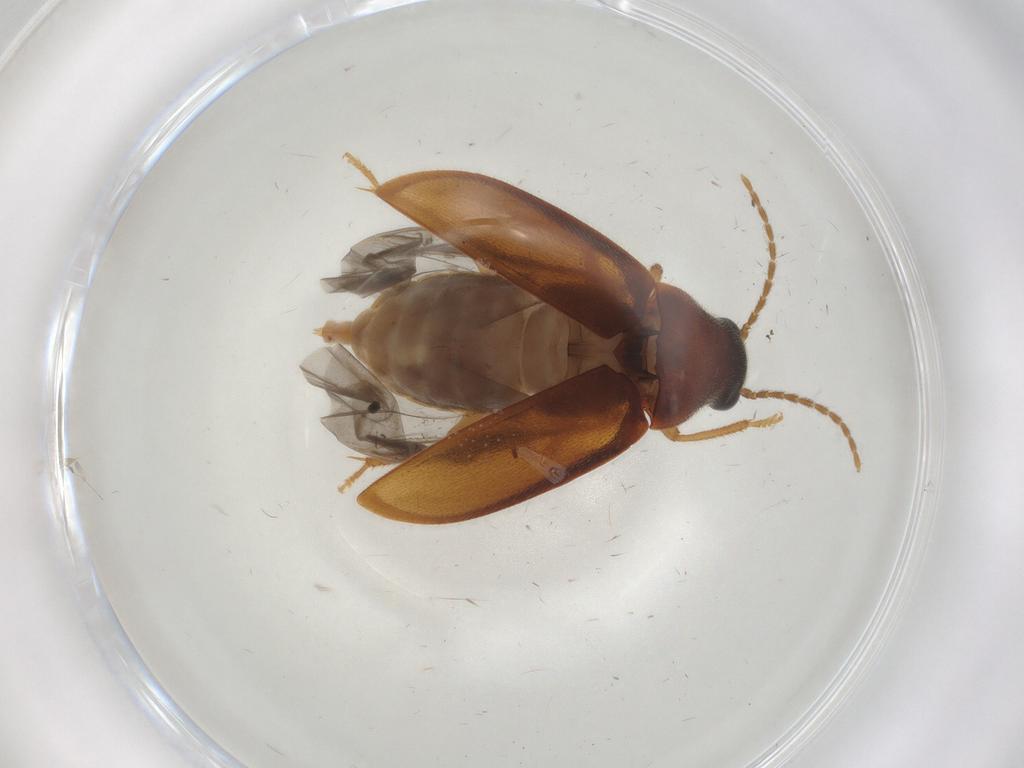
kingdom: Animalia
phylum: Arthropoda
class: Insecta
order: Coleoptera
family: Ptilodactylidae
